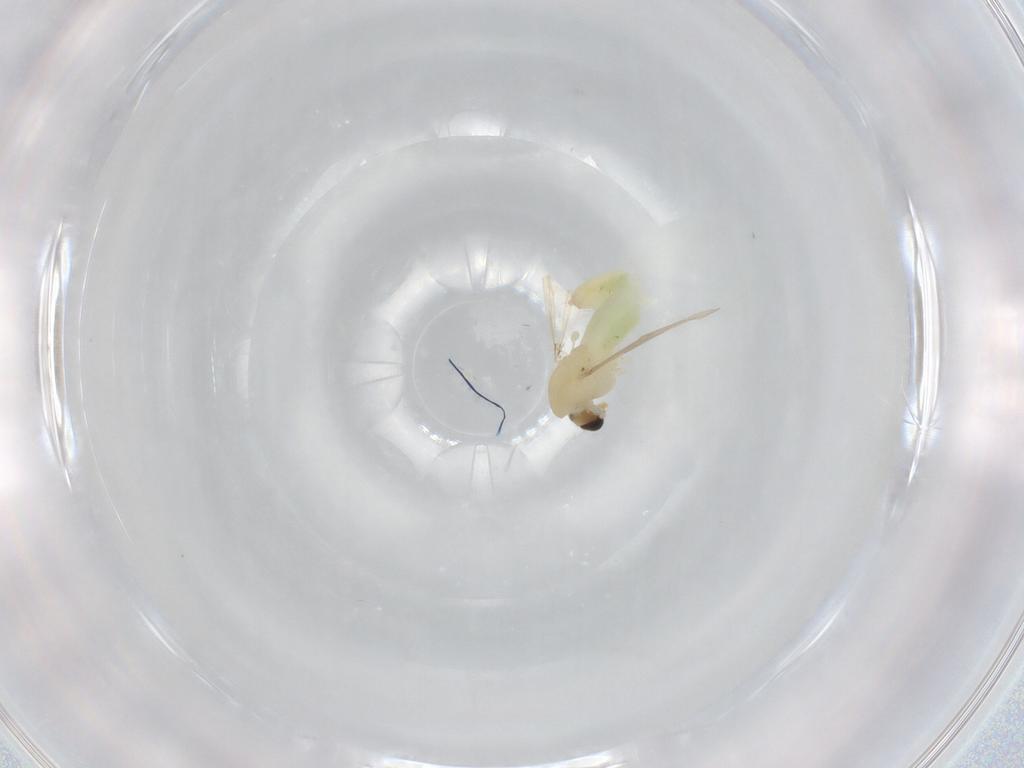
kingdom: Animalia
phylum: Arthropoda
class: Insecta
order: Diptera
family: Chironomidae
